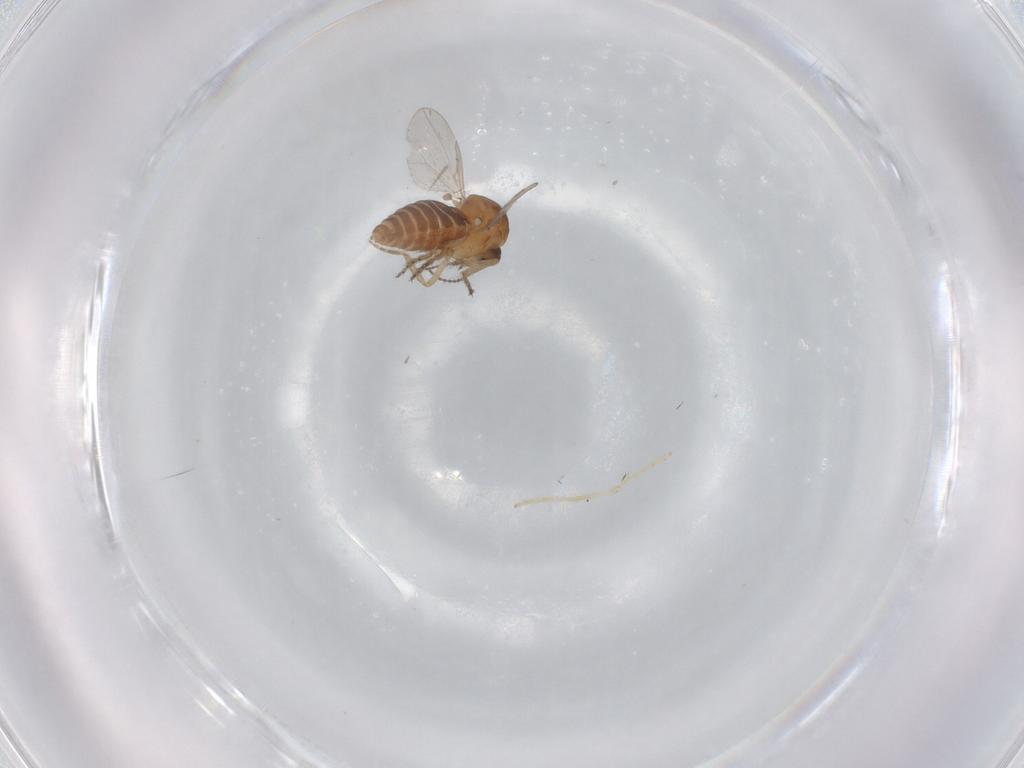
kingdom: Animalia
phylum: Arthropoda
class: Insecta
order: Diptera
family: Ceratopogonidae
